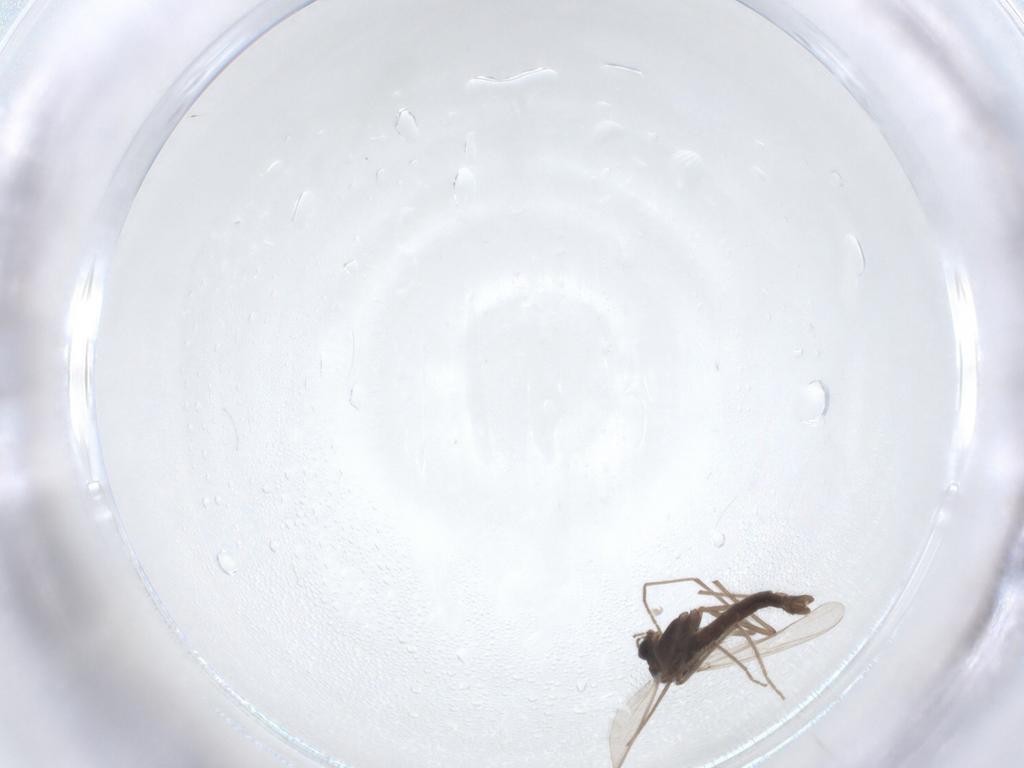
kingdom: Animalia
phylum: Arthropoda
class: Insecta
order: Diptera
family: Chironomidae
